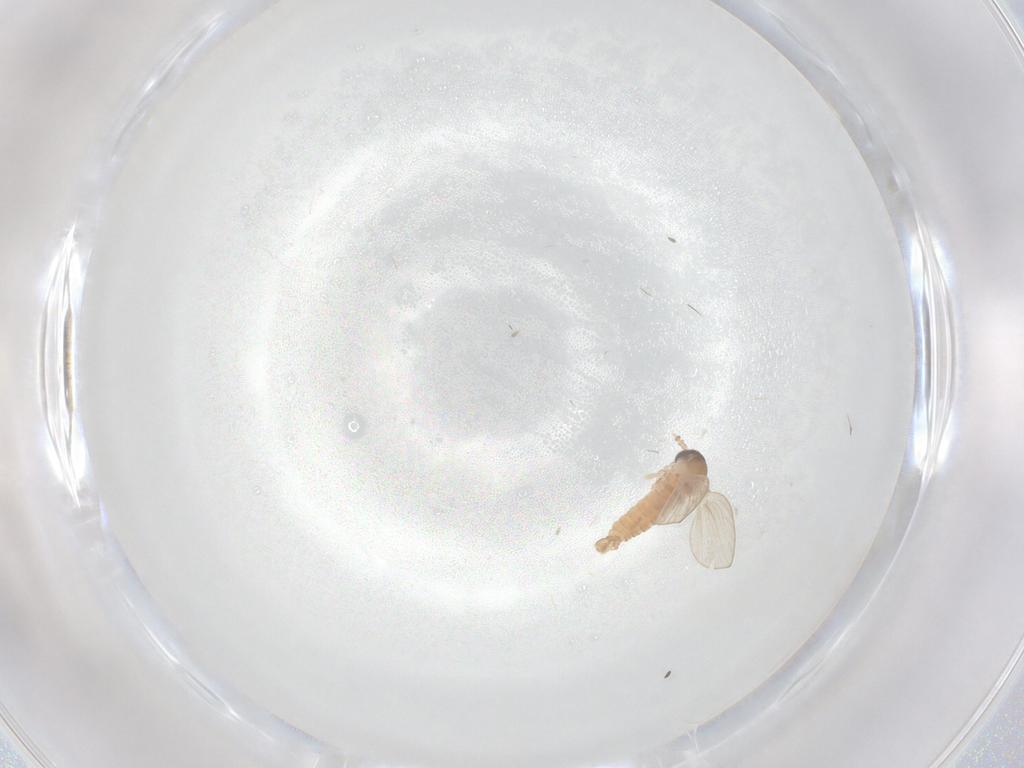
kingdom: Animalia
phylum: Arthropoda
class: Insecta
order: Diptera
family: Psychodidae
